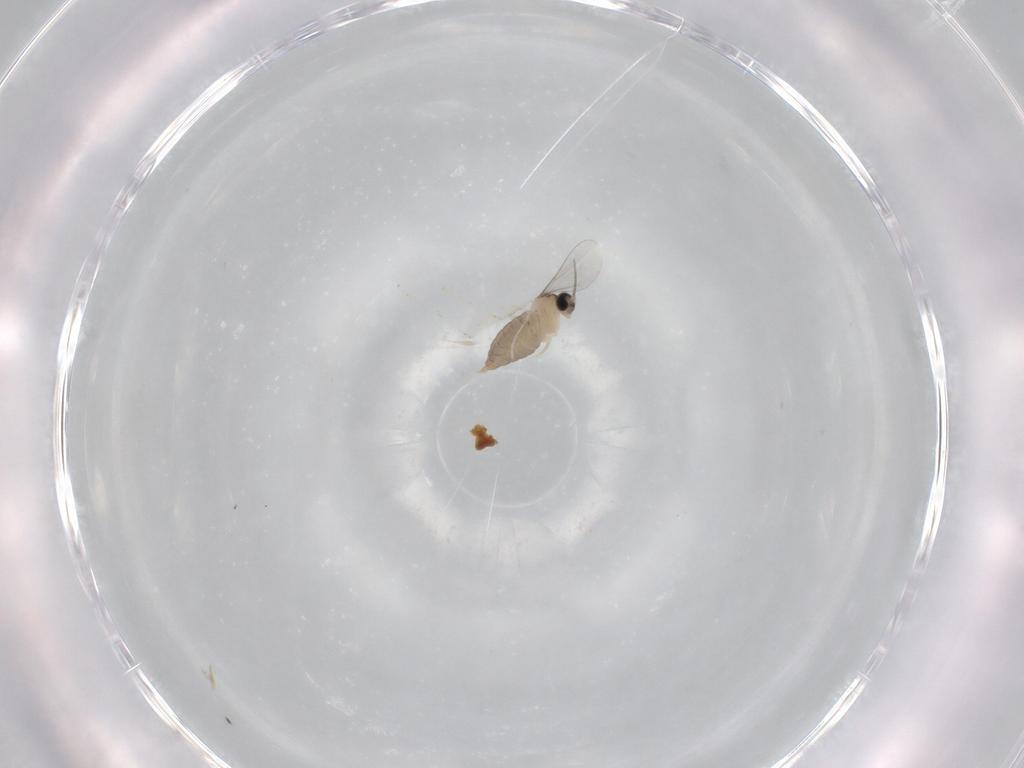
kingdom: Animalia
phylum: Arthropoda
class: Insecta
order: Diptera
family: Cecidomyiidae
